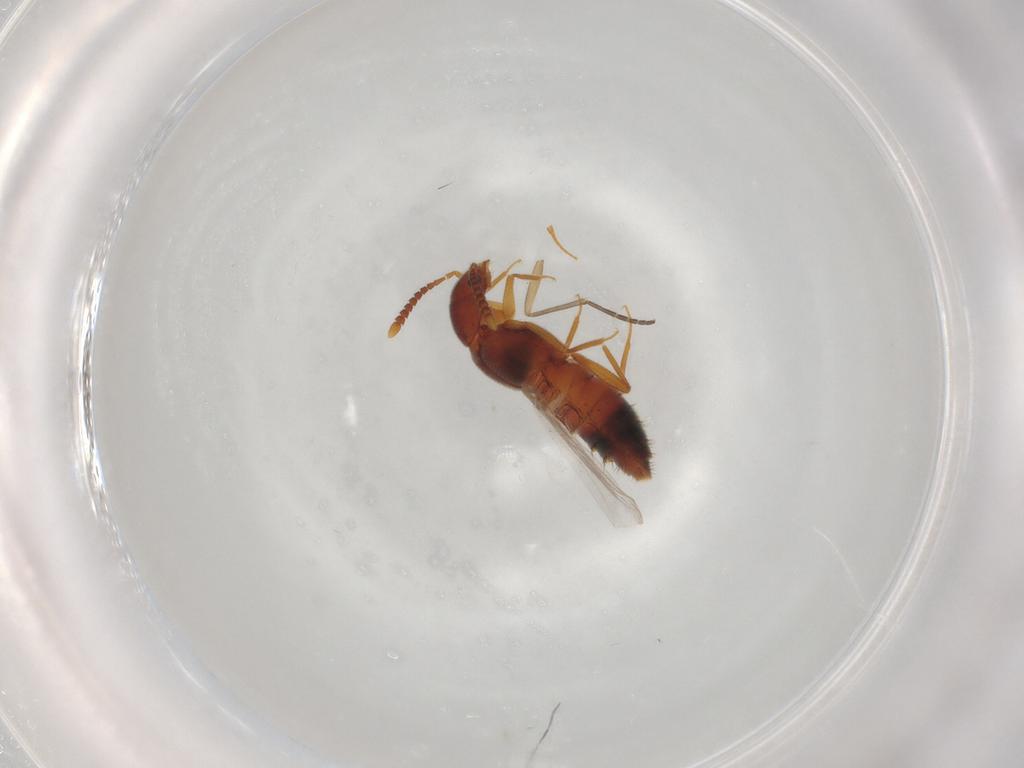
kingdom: Animalia
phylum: Arthropoda
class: Insecta
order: Coleoptera
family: Staphylinidae
